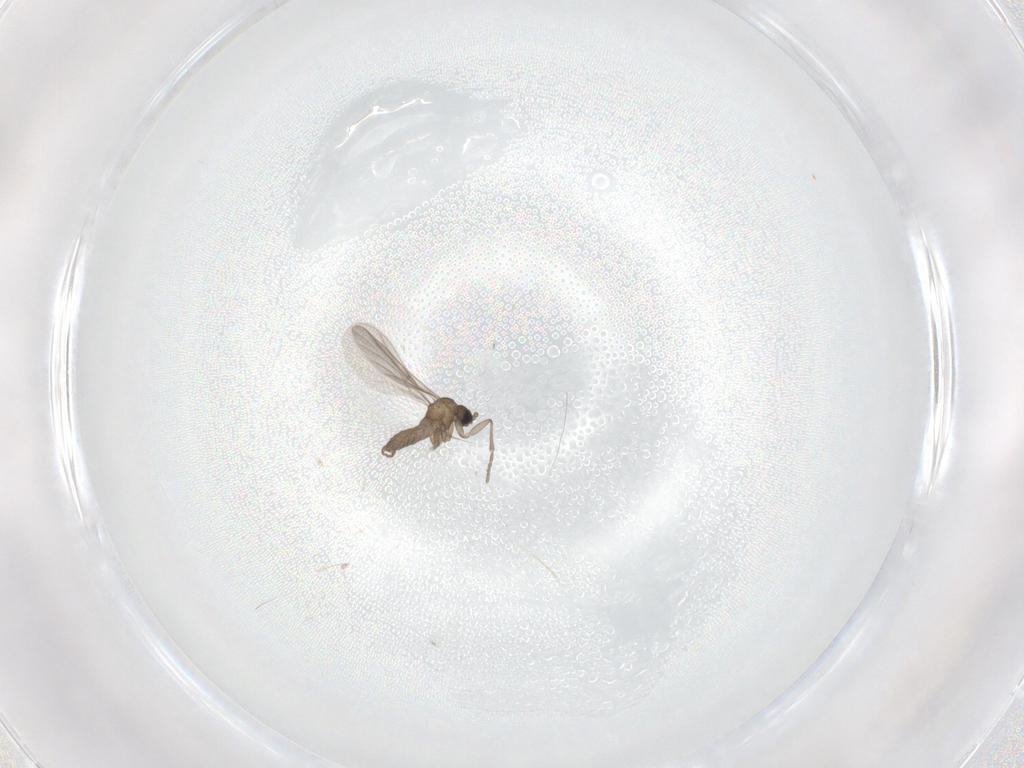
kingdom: Animalia
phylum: Arthropoda
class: Insecta
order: Diptera
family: Sciaridae
